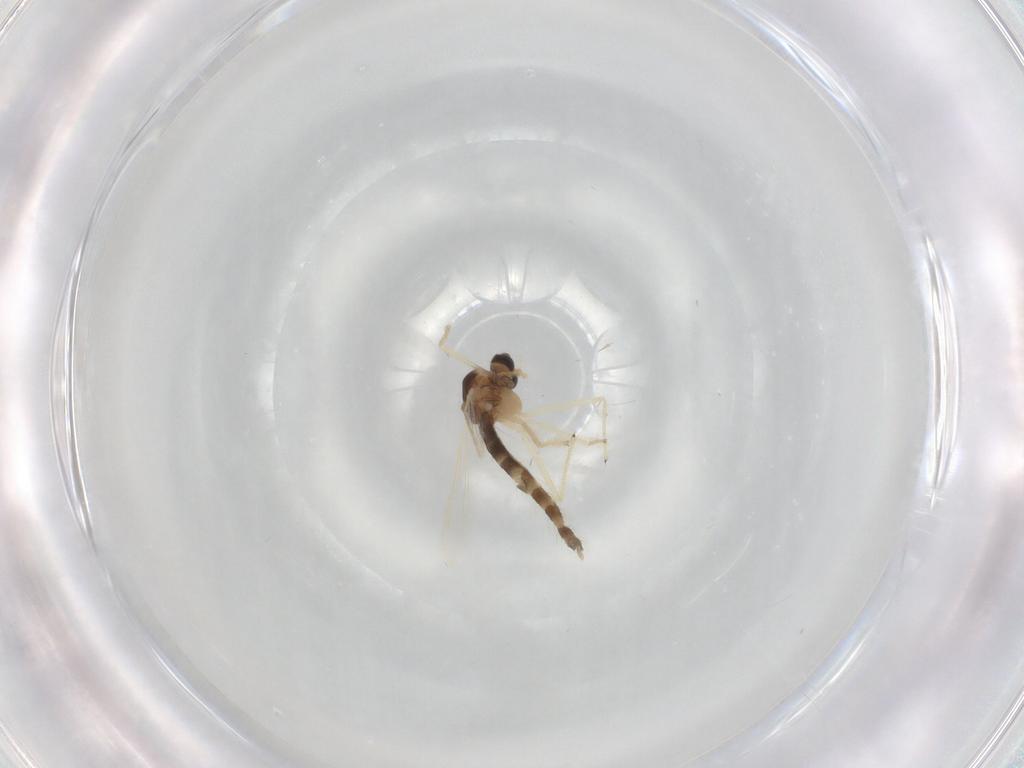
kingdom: Animalia
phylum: Arthropoda
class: Insecta
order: Diptera
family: Chironomidae
